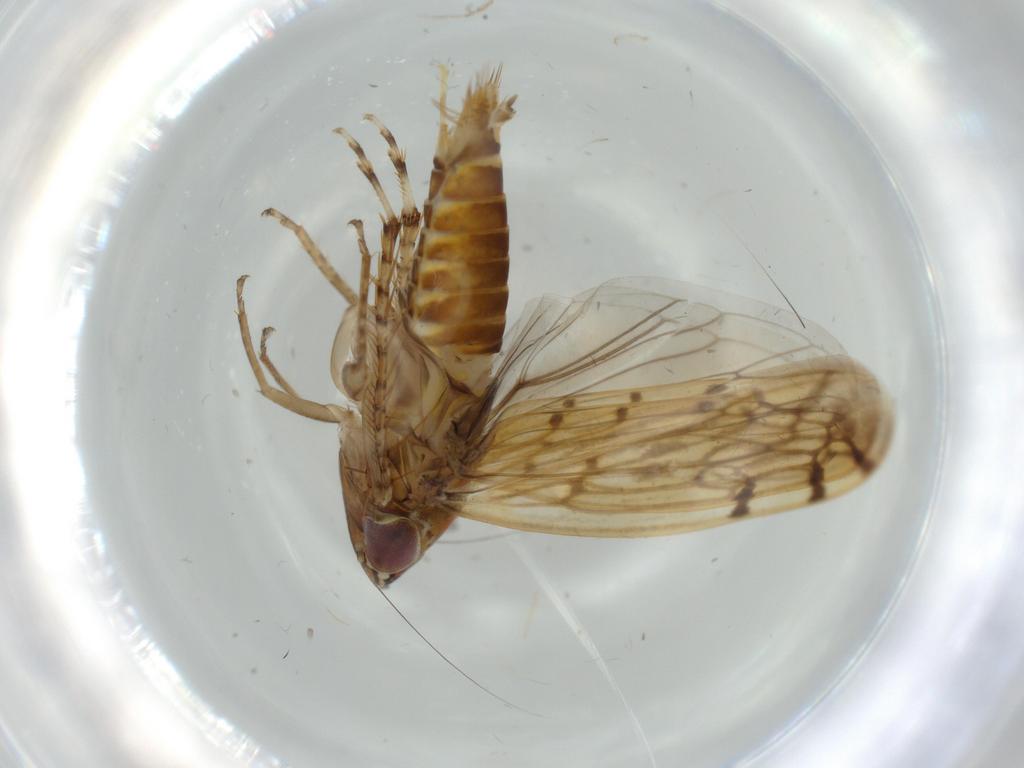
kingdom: Animalia
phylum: Arthropoda
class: Insecta
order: Hemiptera
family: Cicadellidae
